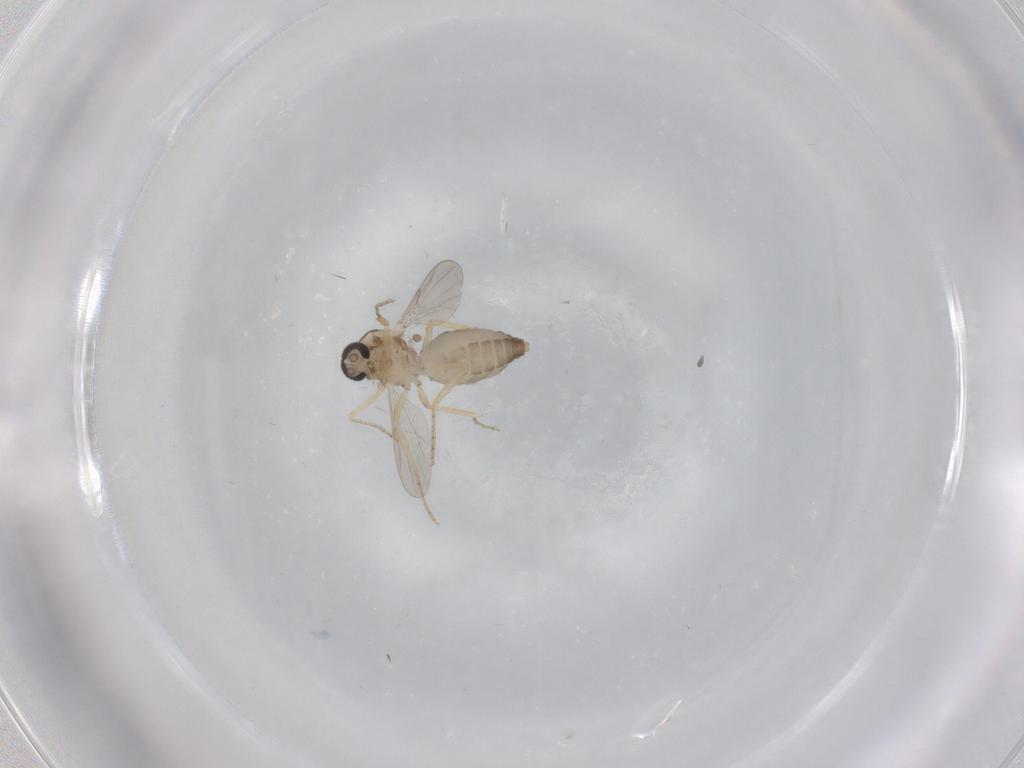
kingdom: Animalia
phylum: Arthropoda
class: Insecta
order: Diptera
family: Ceratopogonidae
